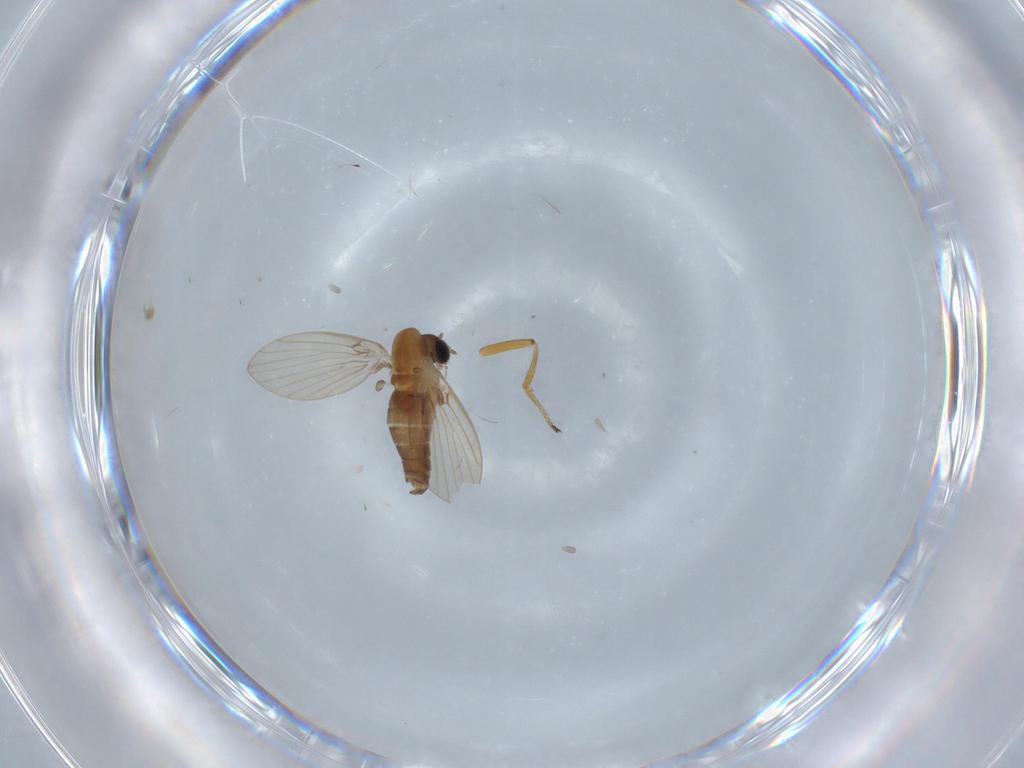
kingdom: Animalia
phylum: Arthropoda
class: Insecta
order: Diptera
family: Ephydridae
